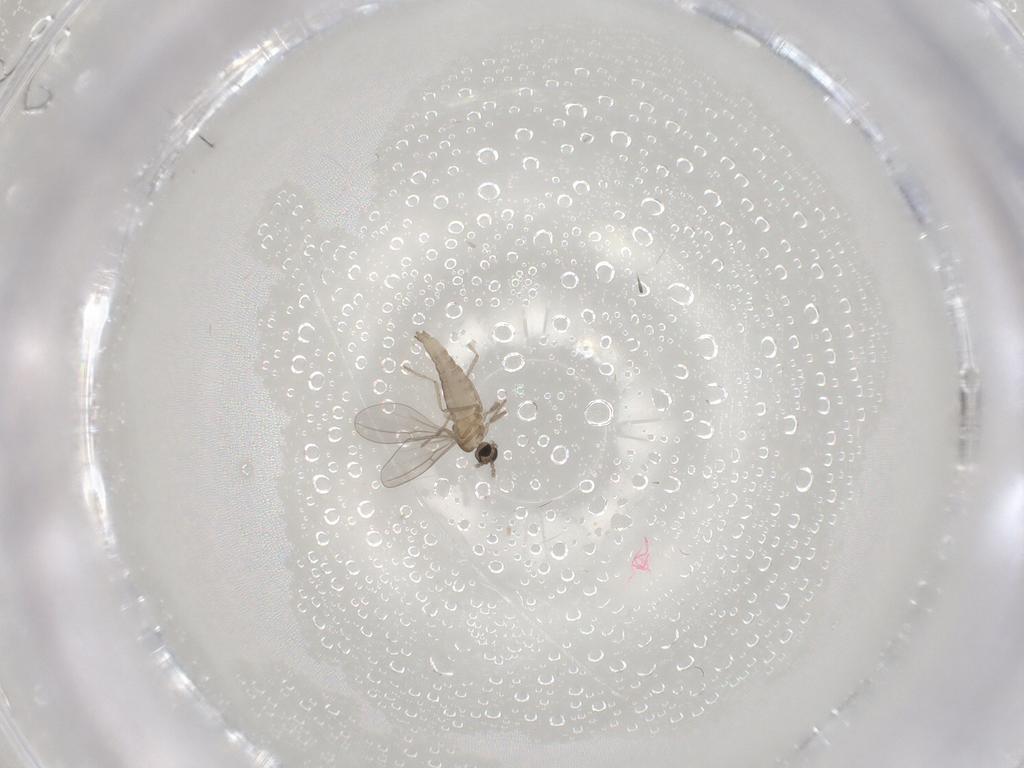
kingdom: Animalia
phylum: Arthropoda
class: Insecta
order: Diptera
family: Cecidomyiidae
